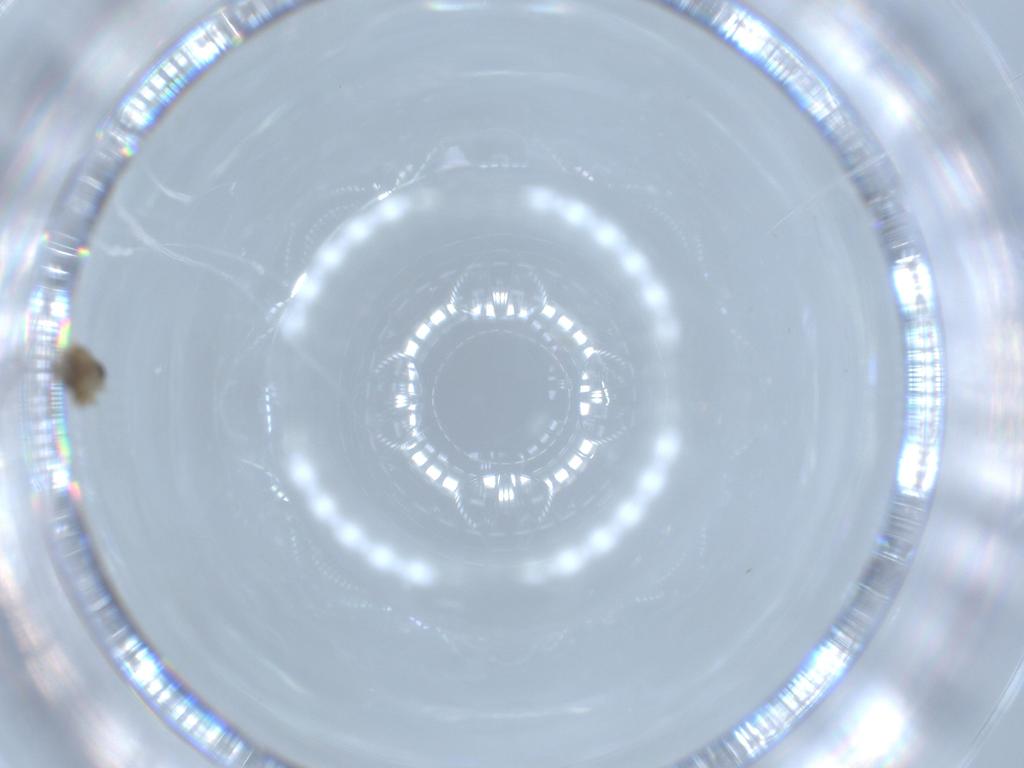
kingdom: Animalia
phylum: Arthropoda
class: Insecta
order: Diptera
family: Chironomidae
